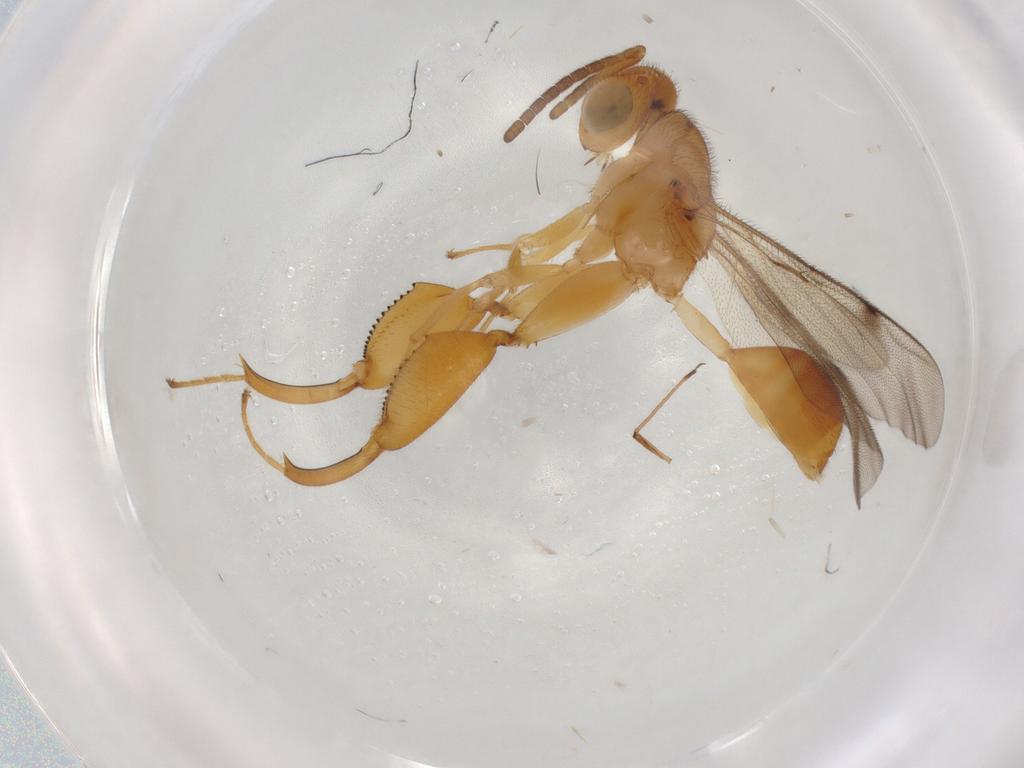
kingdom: Animalia
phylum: Arthropoda
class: Insecta
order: Hymenoptera
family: Chalcididae
